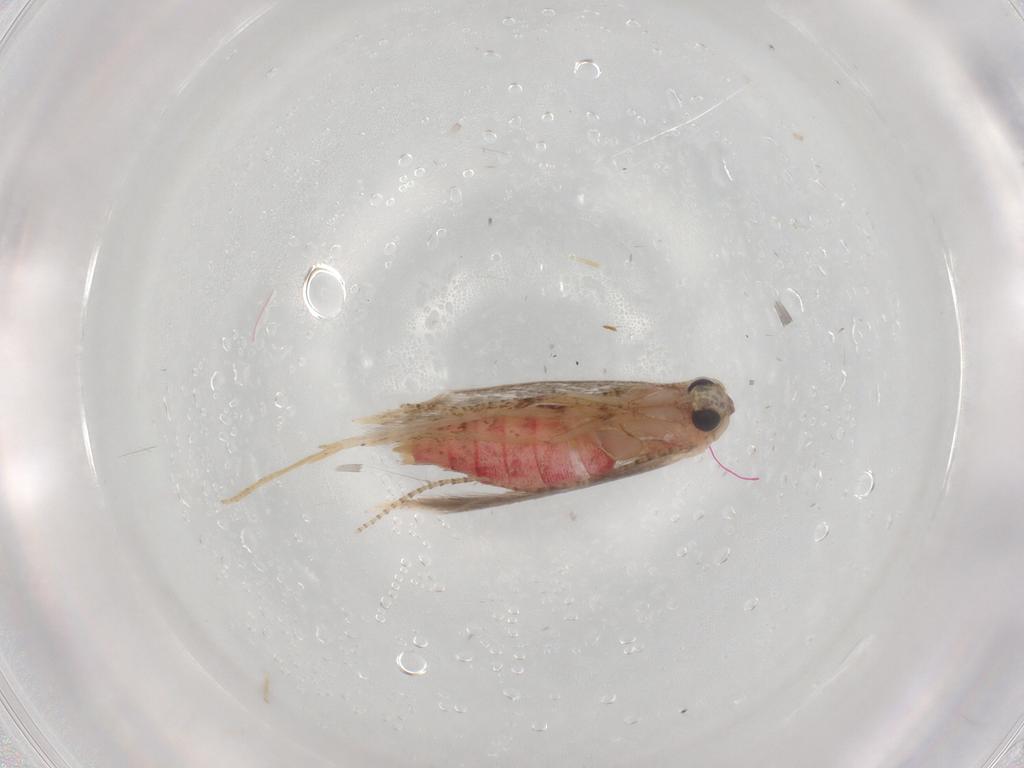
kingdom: Animalia
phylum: Arthropoda
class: Insecta
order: Lepidoptera
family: Bedelliidae
